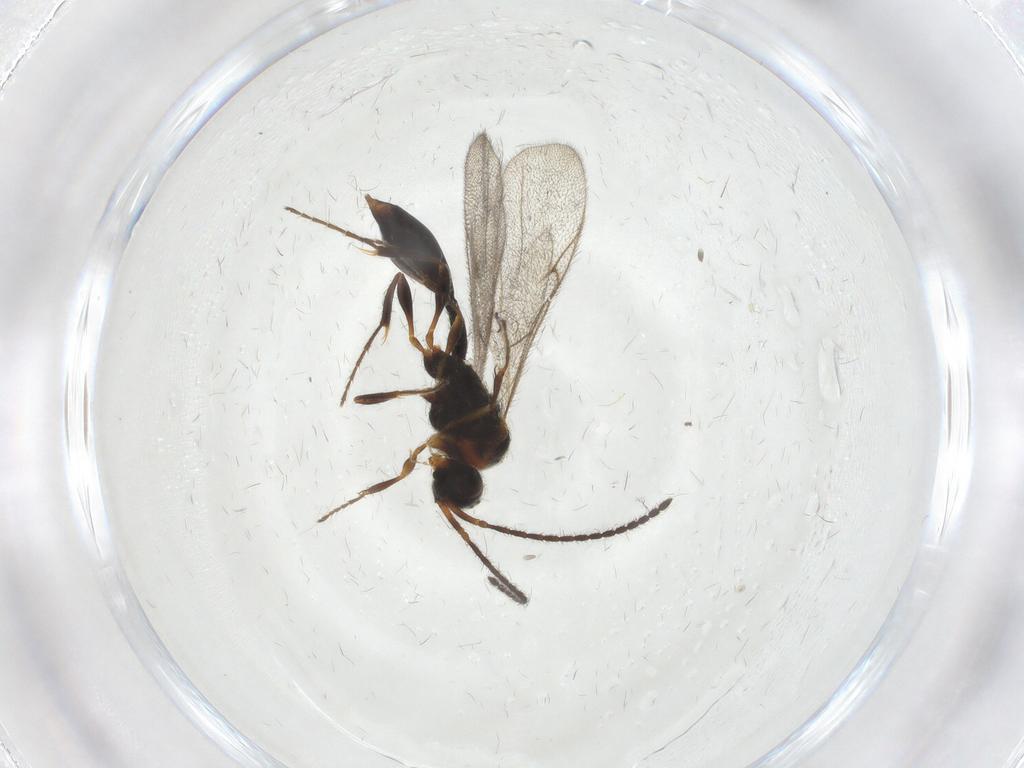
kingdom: Animalia
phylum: Arthropoda
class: Insecta
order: Hymenoptera
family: Diapriidae
